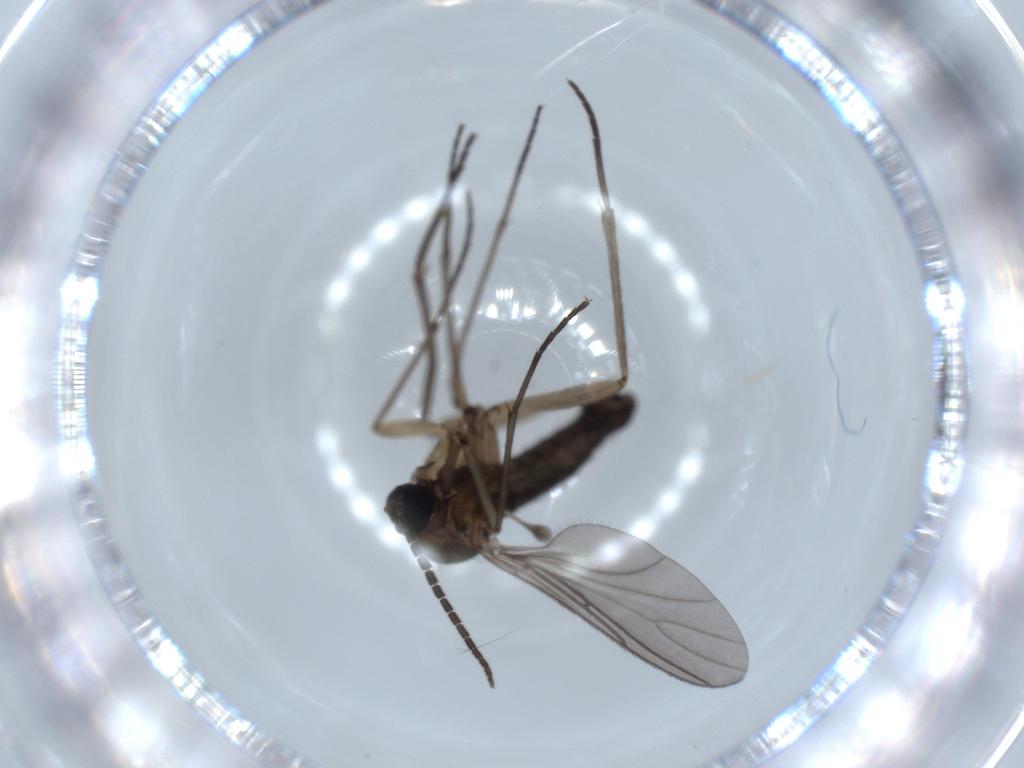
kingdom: Animalia
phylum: Arthropoda
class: Insecta
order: Diptera
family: Sciaridae
